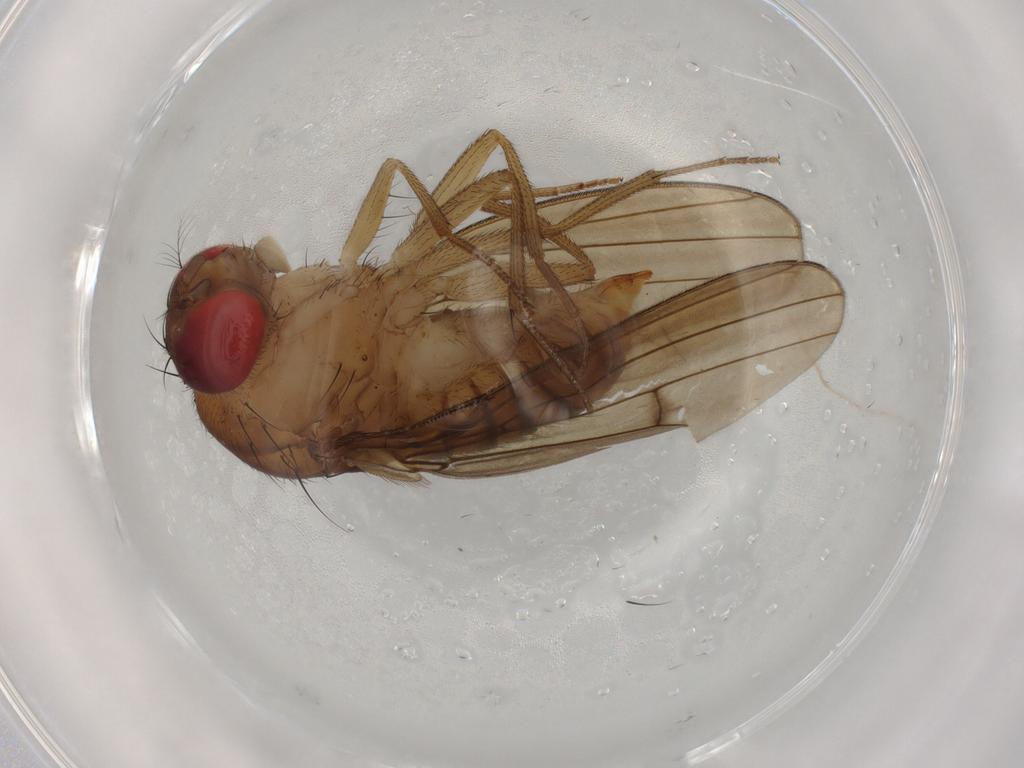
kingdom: Animalia
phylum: Arthropoda
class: Insecta
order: Diptera
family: Drosophilidae
